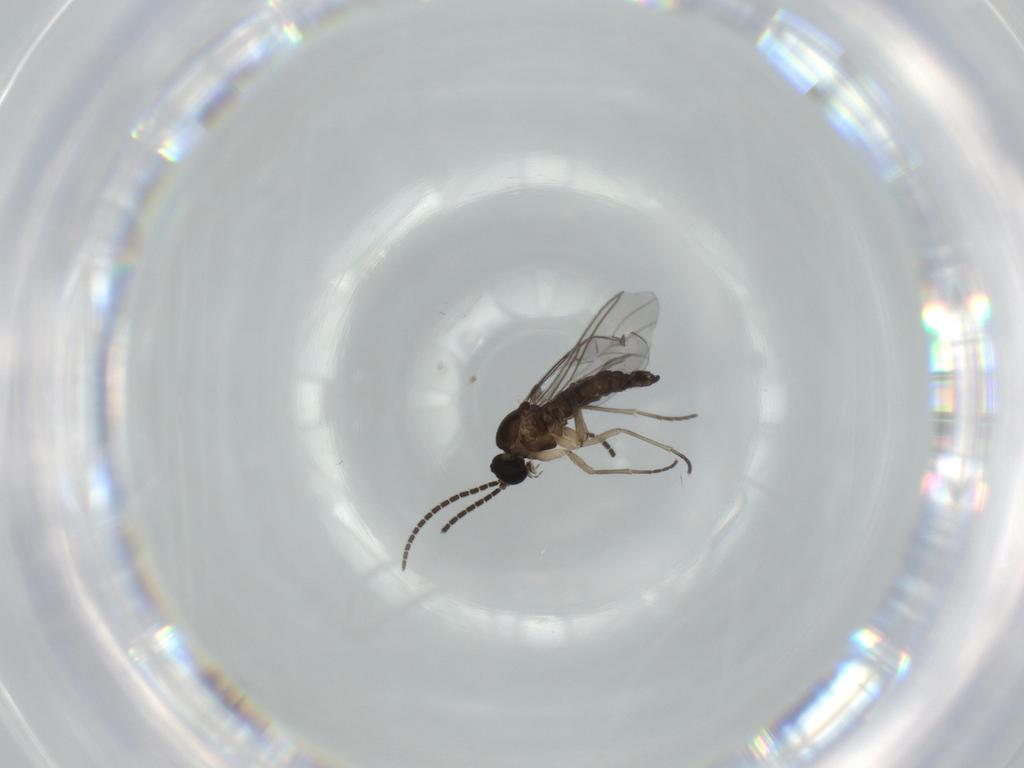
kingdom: Animalia
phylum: Arthropoda
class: Insecta
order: Diptera
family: Sciaridae
